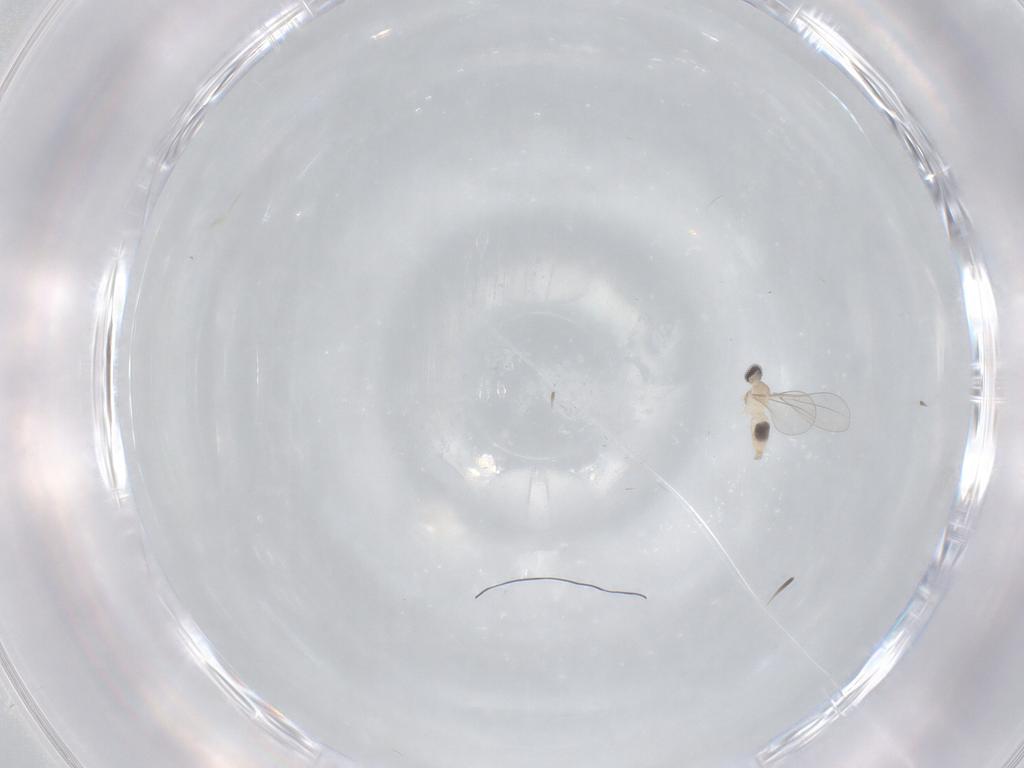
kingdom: Animalia
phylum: Arthropoda
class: Insecta
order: Diptera
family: Cecidomyiidae
